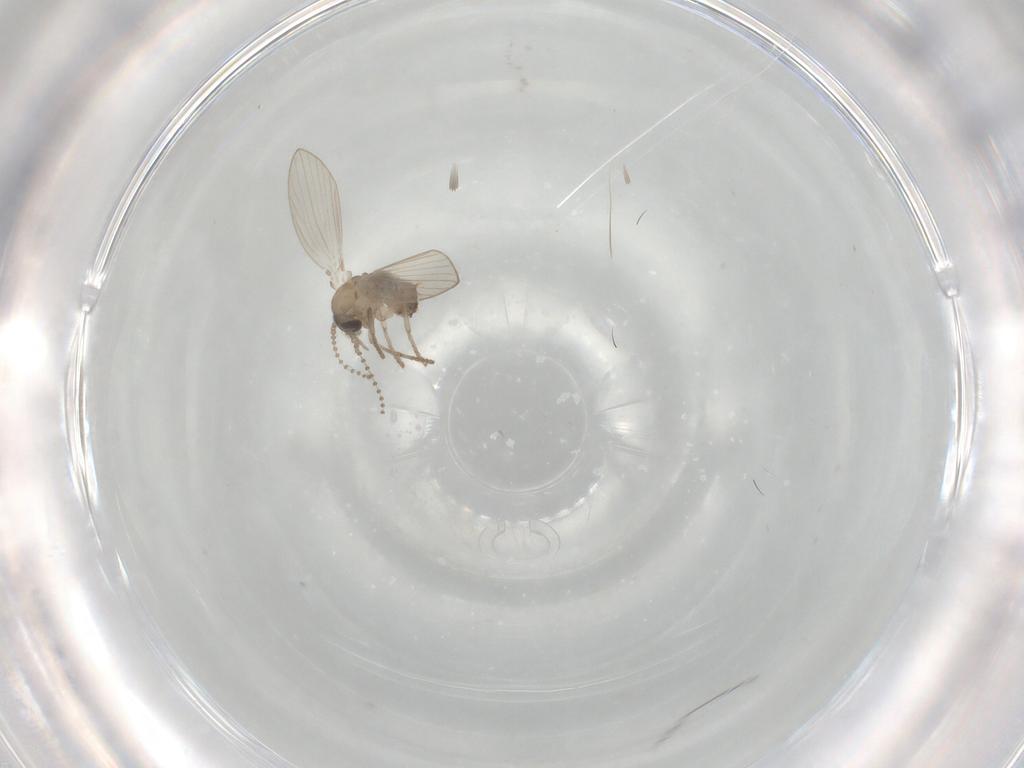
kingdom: Animalia
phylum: Arthropoda
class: Insecta
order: Diptera
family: Psychodidae
